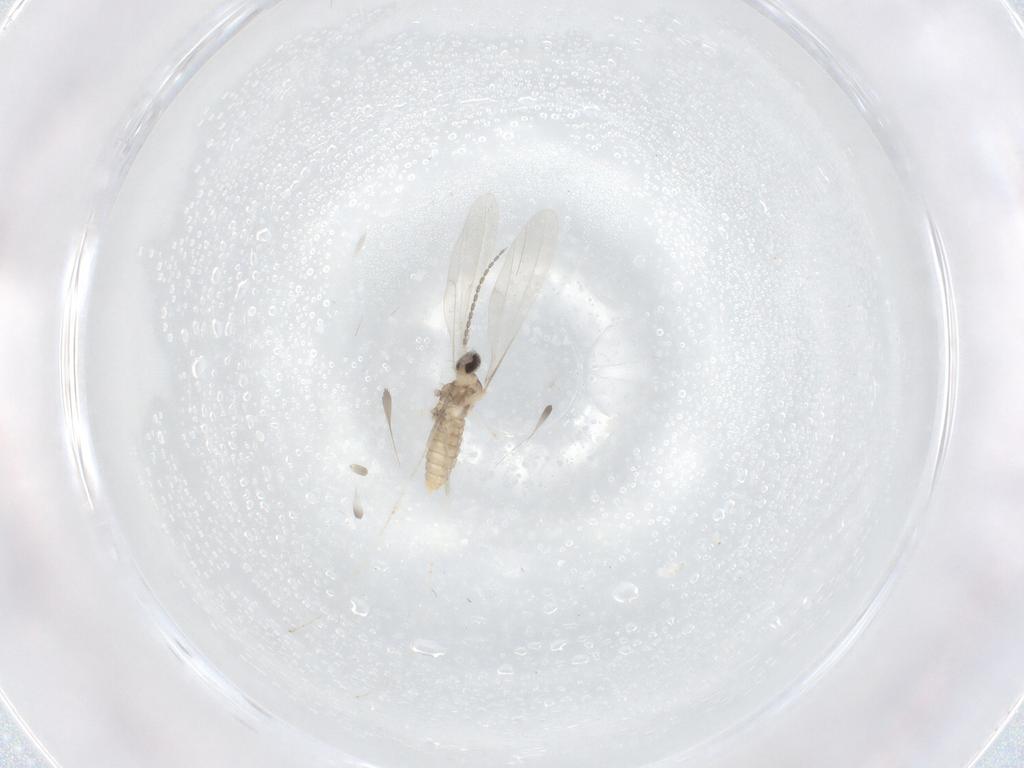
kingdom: Animalia
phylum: Arthropoda
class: Insecta
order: Diptera
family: Cecidomyiidae
